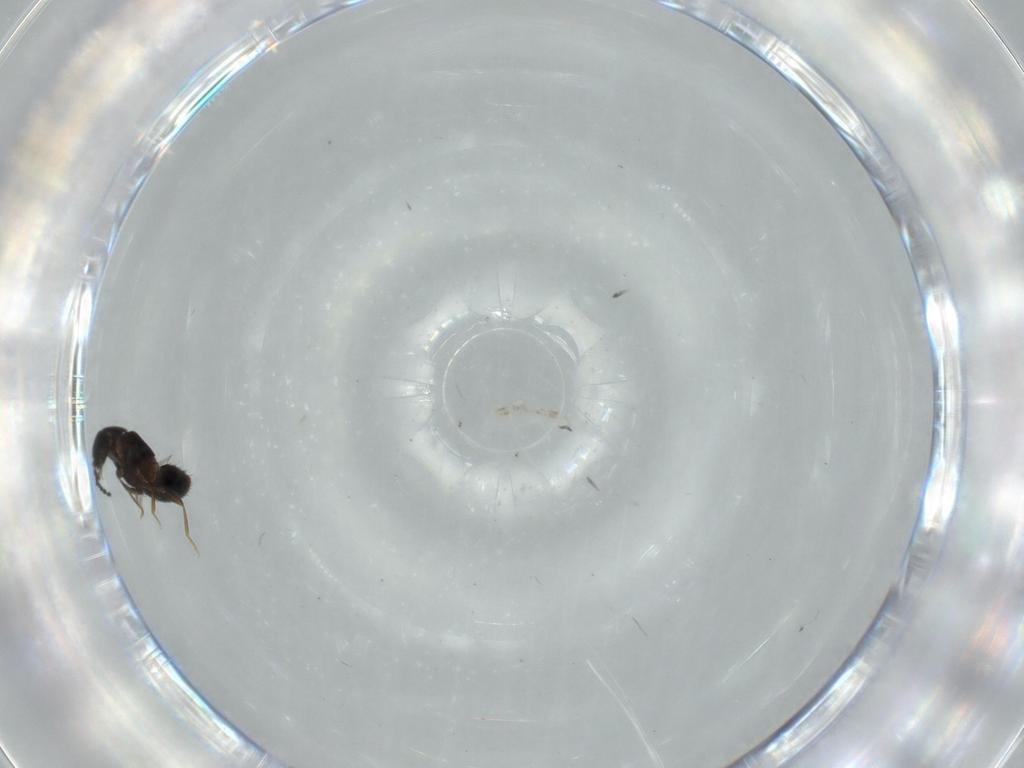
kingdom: Animalia
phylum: Arthropoda
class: Insecta
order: Coleoptera
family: Staphylinidae
